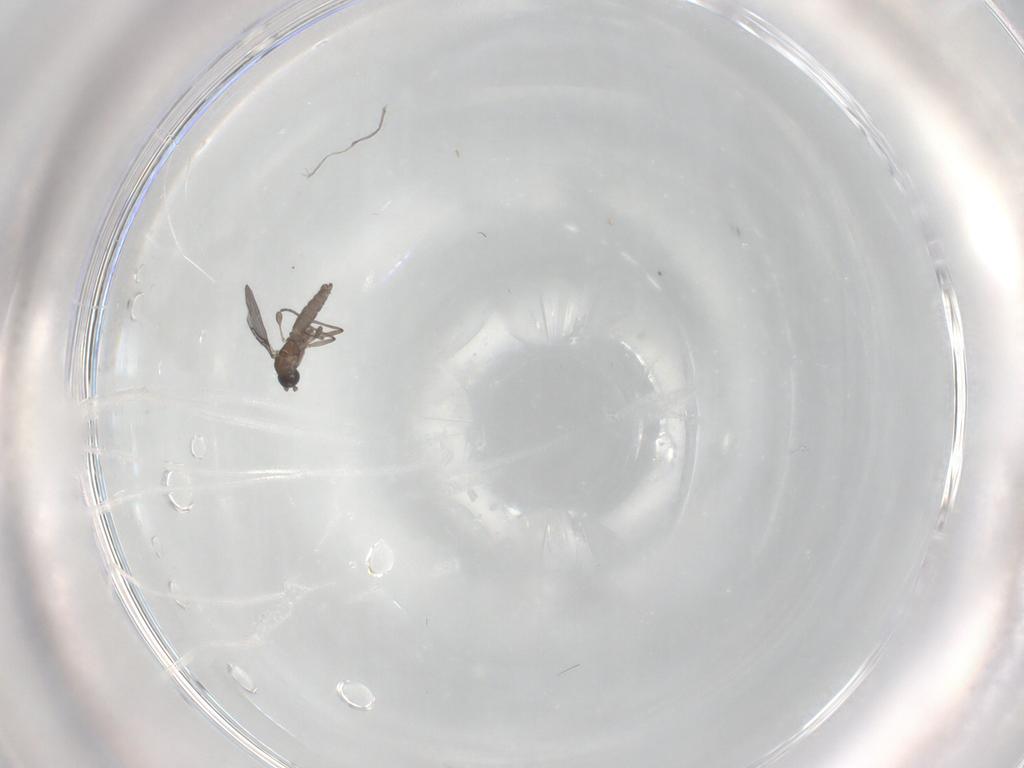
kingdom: Animalia
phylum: Arthropoda
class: Insecta
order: Diptera
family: Sciaridae
